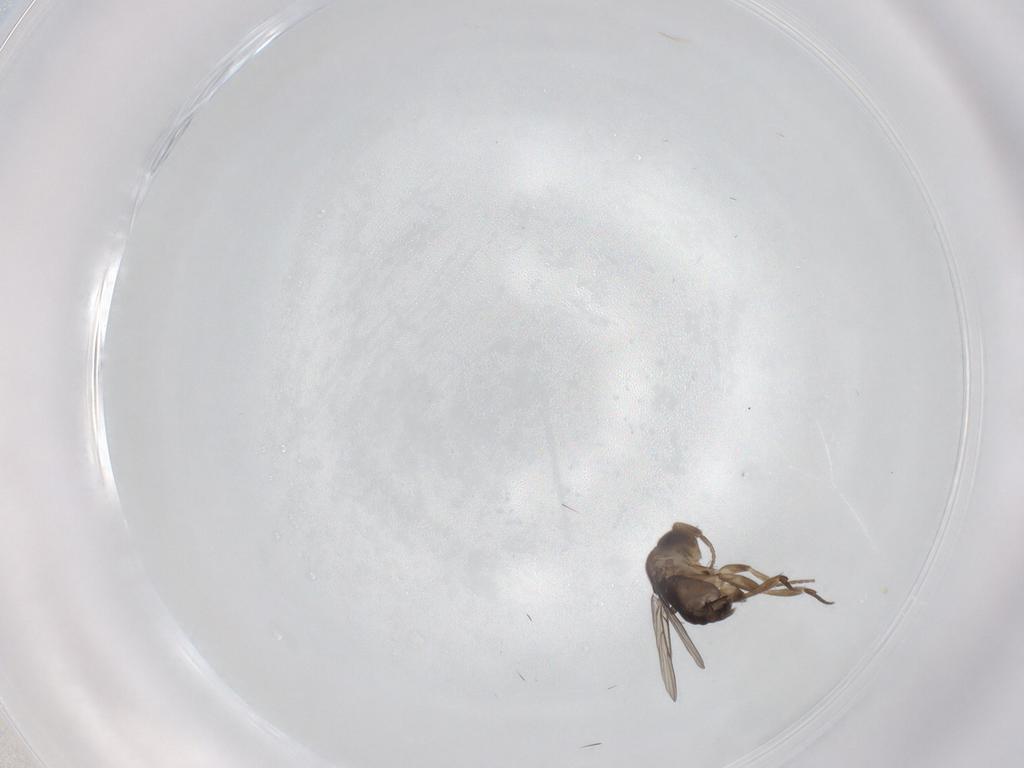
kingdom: Animalia
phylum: Arthropoda
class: Insecta
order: Diptera
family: Phoridae
